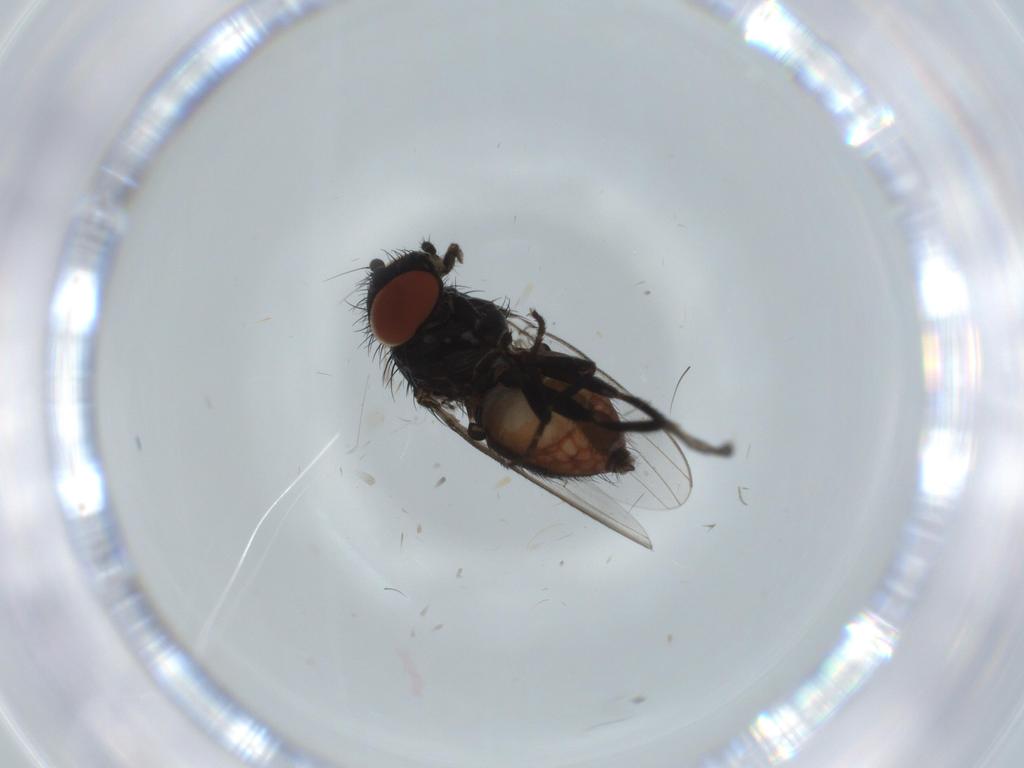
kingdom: Animalia
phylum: Arthropoda
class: Insecta
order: Diptera
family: Milichiidae
